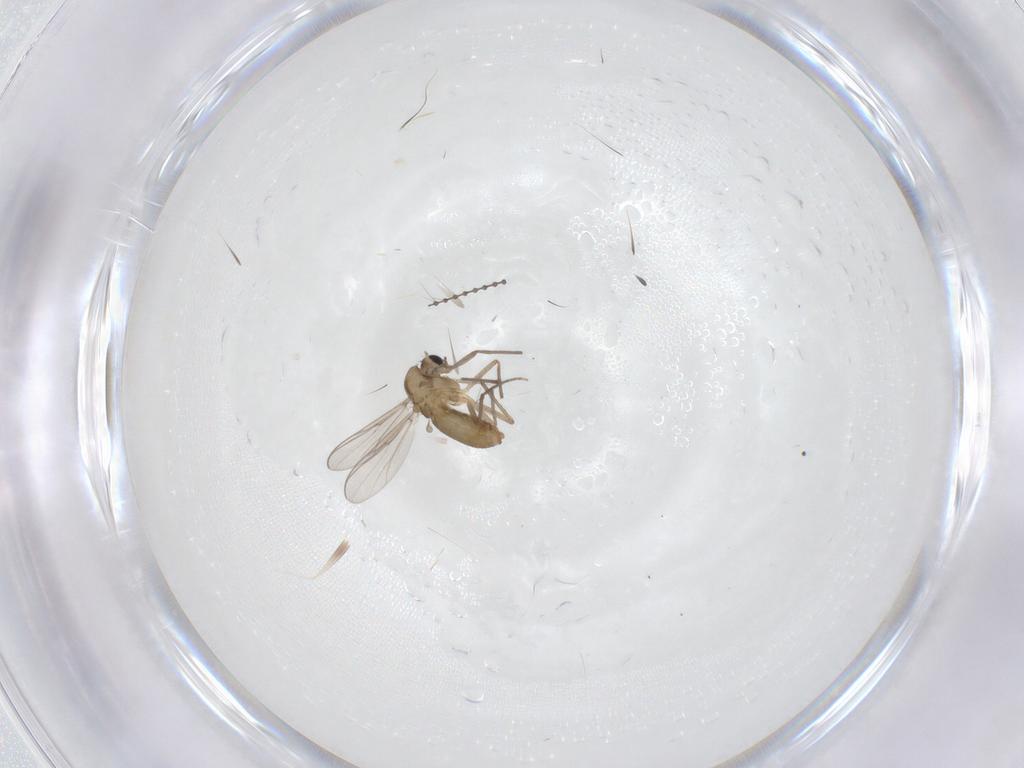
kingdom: Animalia
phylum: Arthropoda
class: Insecta
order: Diptera
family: Chironomidae
